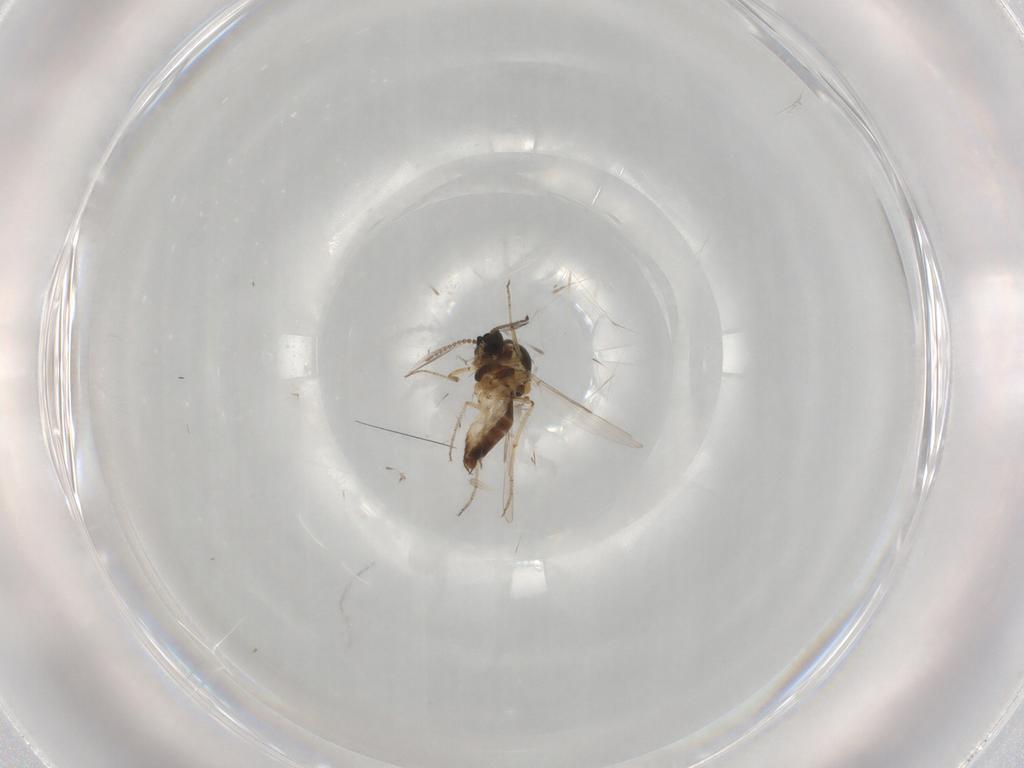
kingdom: Animalia
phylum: Arthropoda
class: Insecta
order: Diptera
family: Ceratopogonidae
